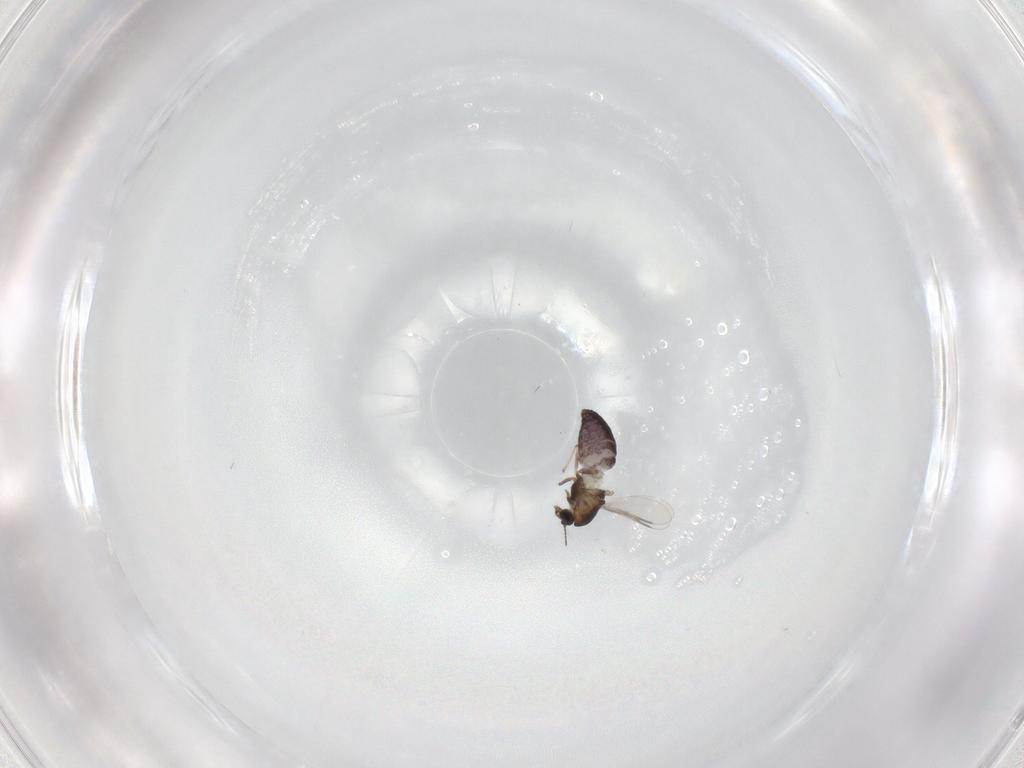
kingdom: Animalia
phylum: Arthropoda
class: Insecta
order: Diptera
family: Chironomidae
